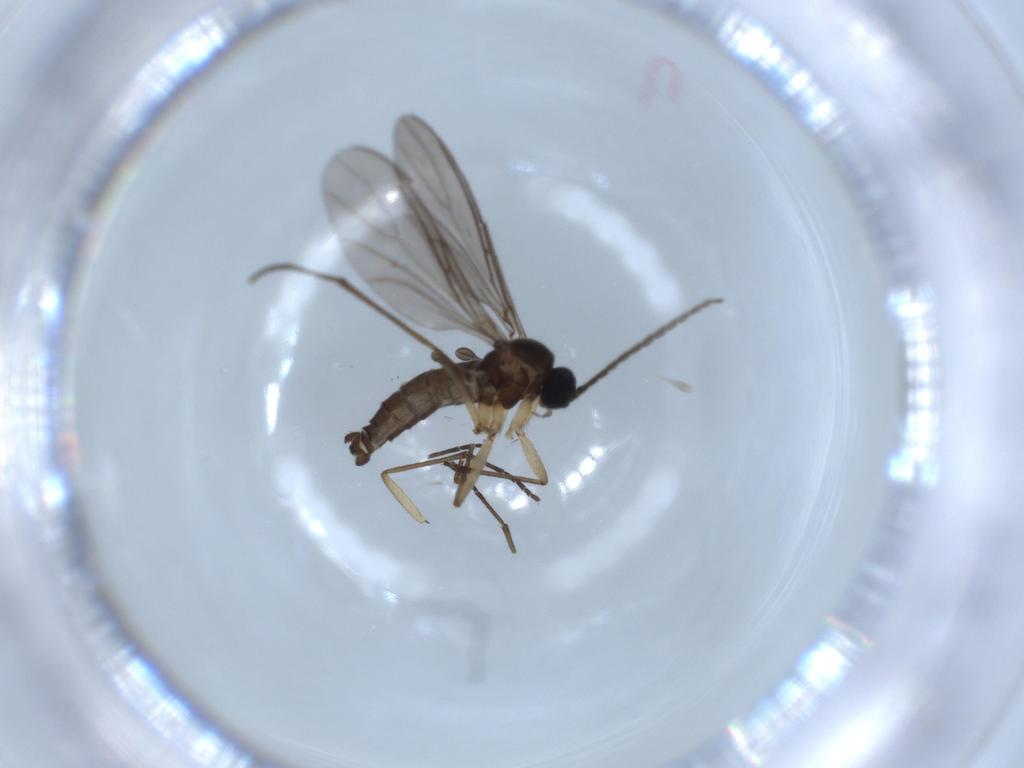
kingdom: Animalia
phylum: Arthropoda
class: Insecta
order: Diptera
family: Sciaridae
